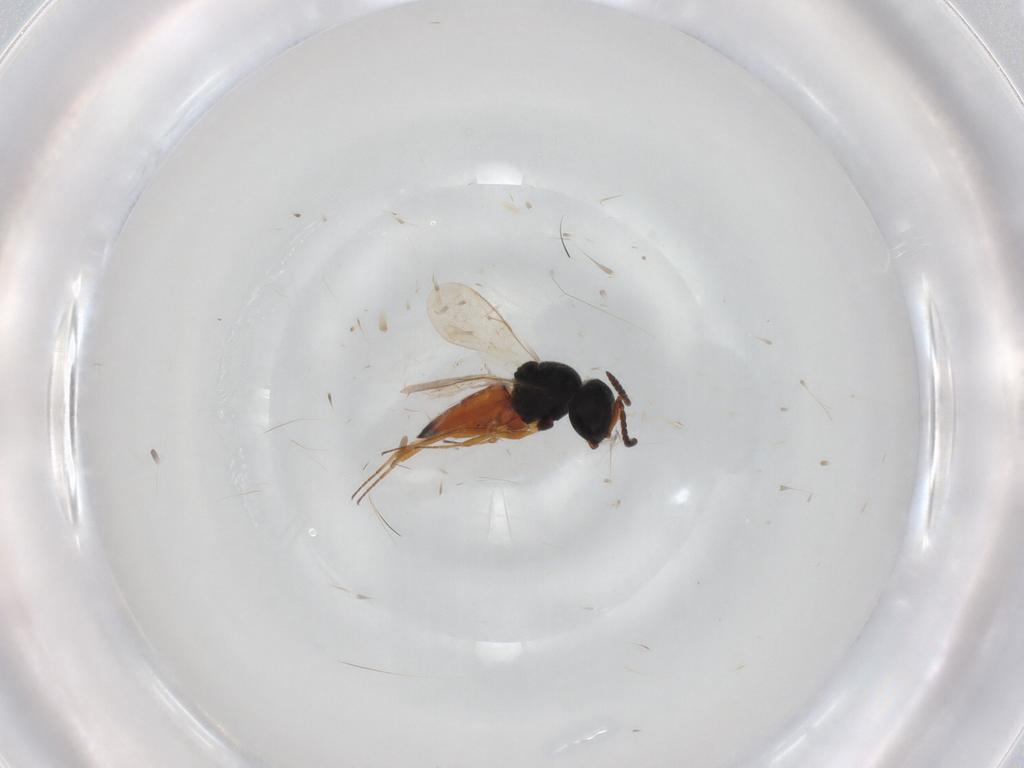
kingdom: Animalia
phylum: Arthropoda
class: Insecta
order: Hymenoptera
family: Scelionidae
